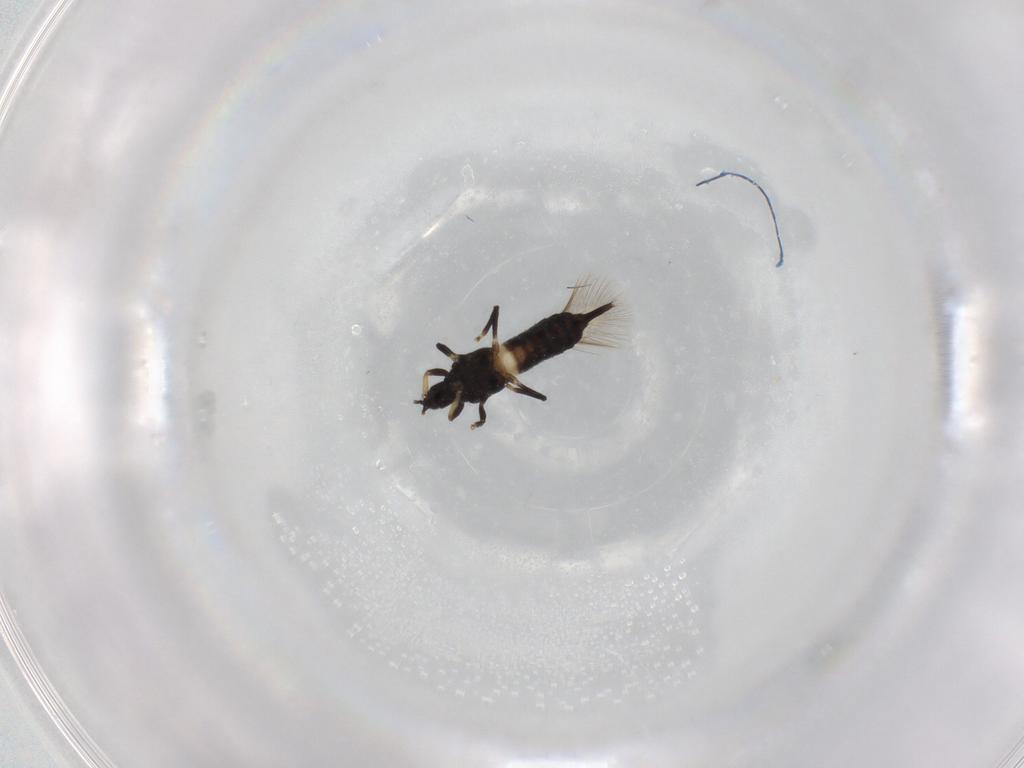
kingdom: Animalia
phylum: Arthropoda
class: Insecta
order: Thysanoptera
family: Phlaeothripidae
